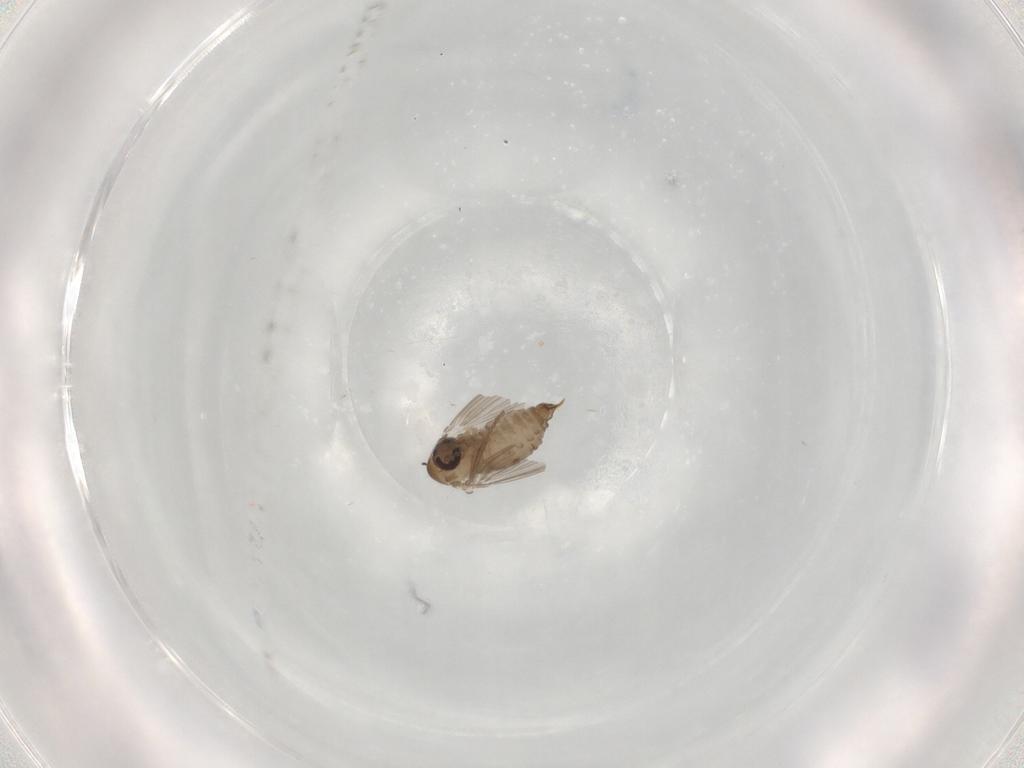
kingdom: Animalia
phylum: Arthropoda
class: Insecta
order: Diptera
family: Psychodidae
